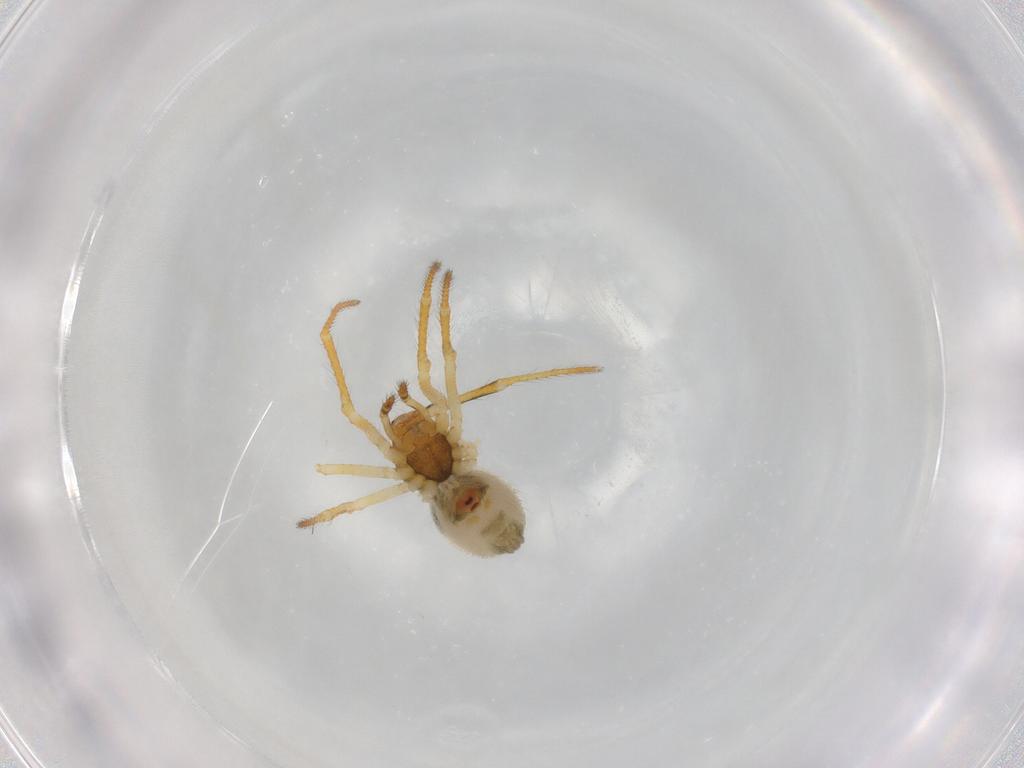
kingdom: Animalia
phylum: Arthropoda
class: Arachnida
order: Araneae
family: Theridiidae
